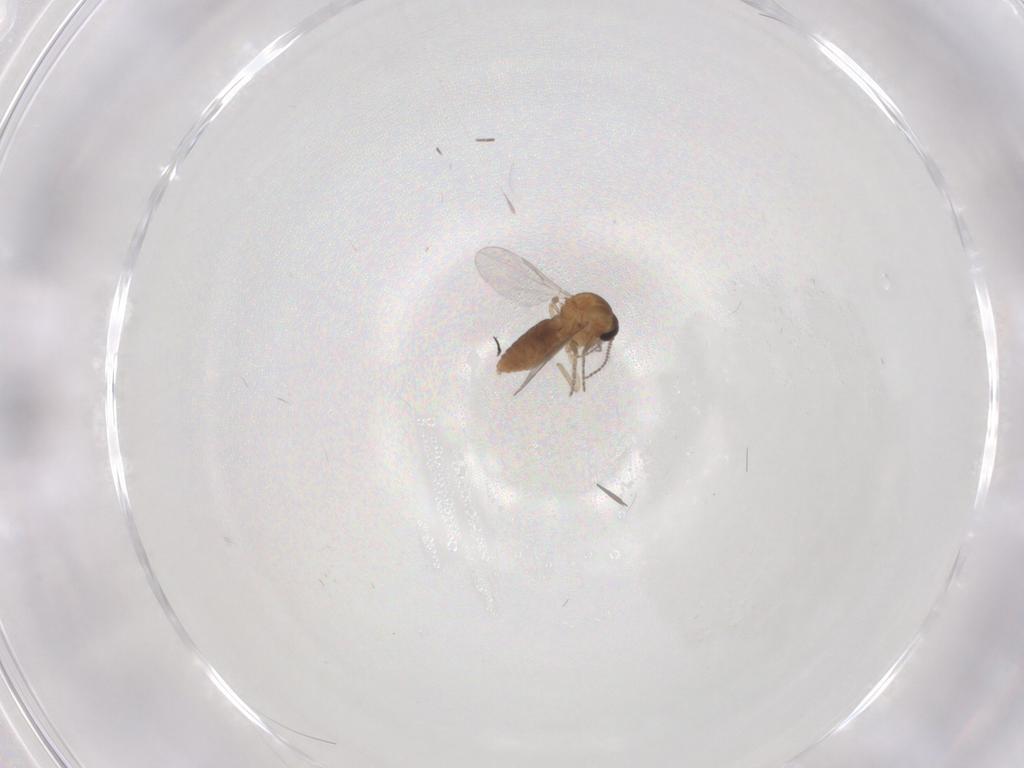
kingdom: Animalia
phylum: Arthropoda
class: Insecta
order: Diptera
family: Ceratopogonidae
